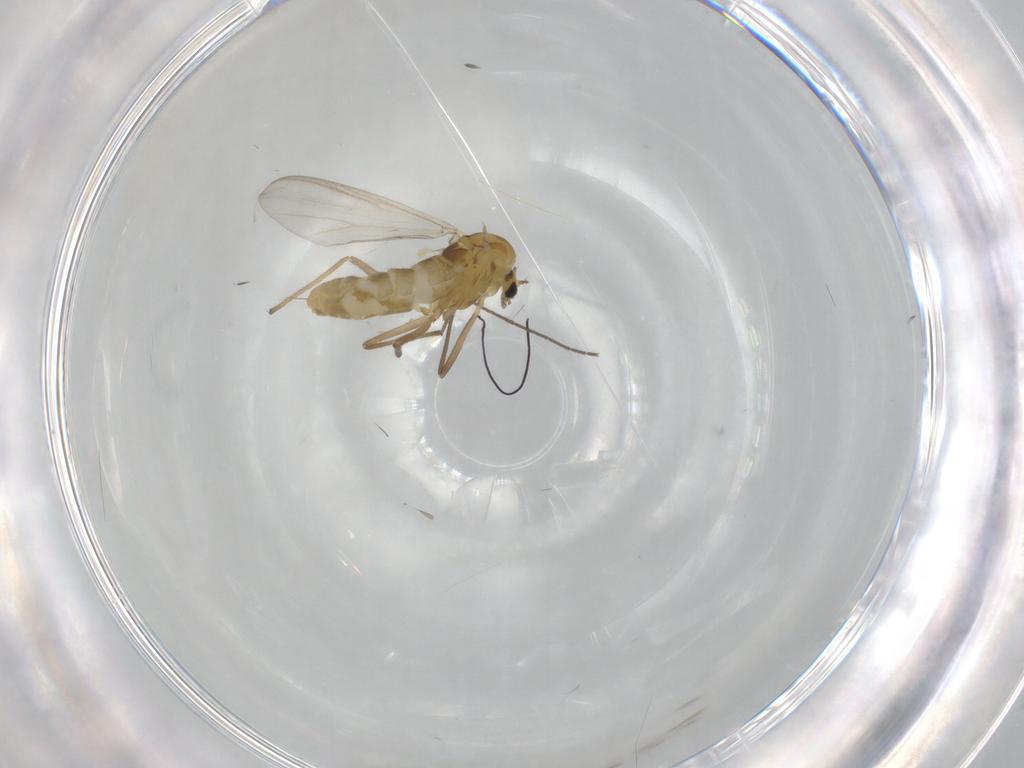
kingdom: Animalia
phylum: Arthropoda
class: Insecta
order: Diptera
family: Chironomidae
